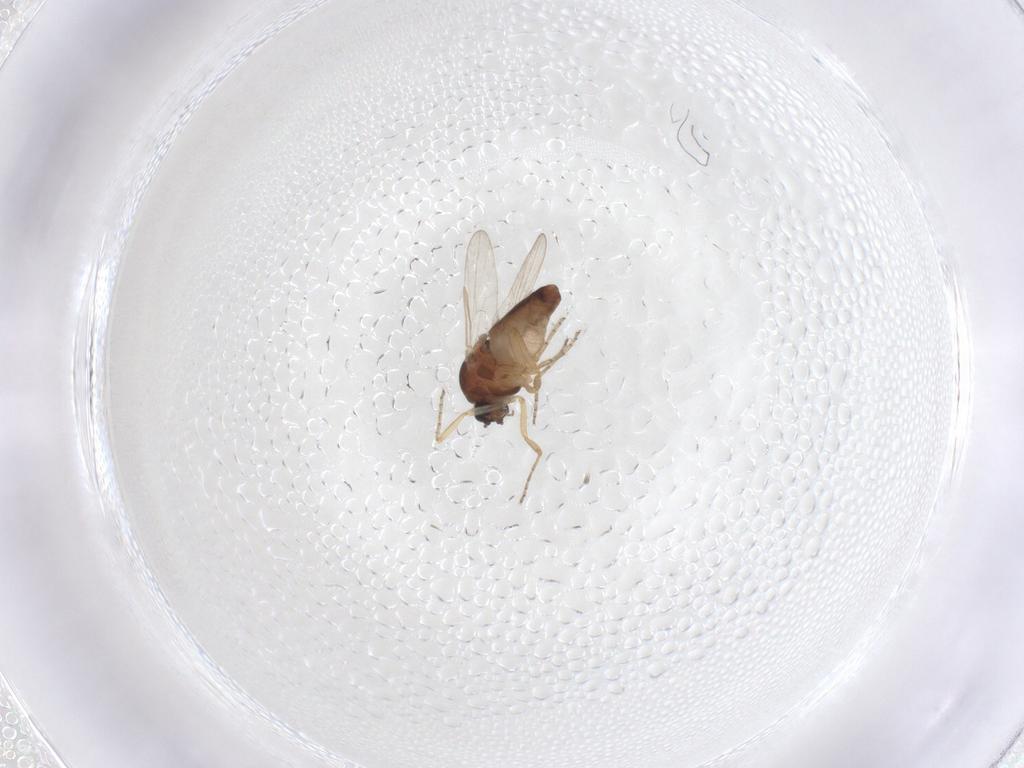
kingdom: Animalia
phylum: Arthropoda
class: Insecta
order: Diptera
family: Ceratopogonidae
